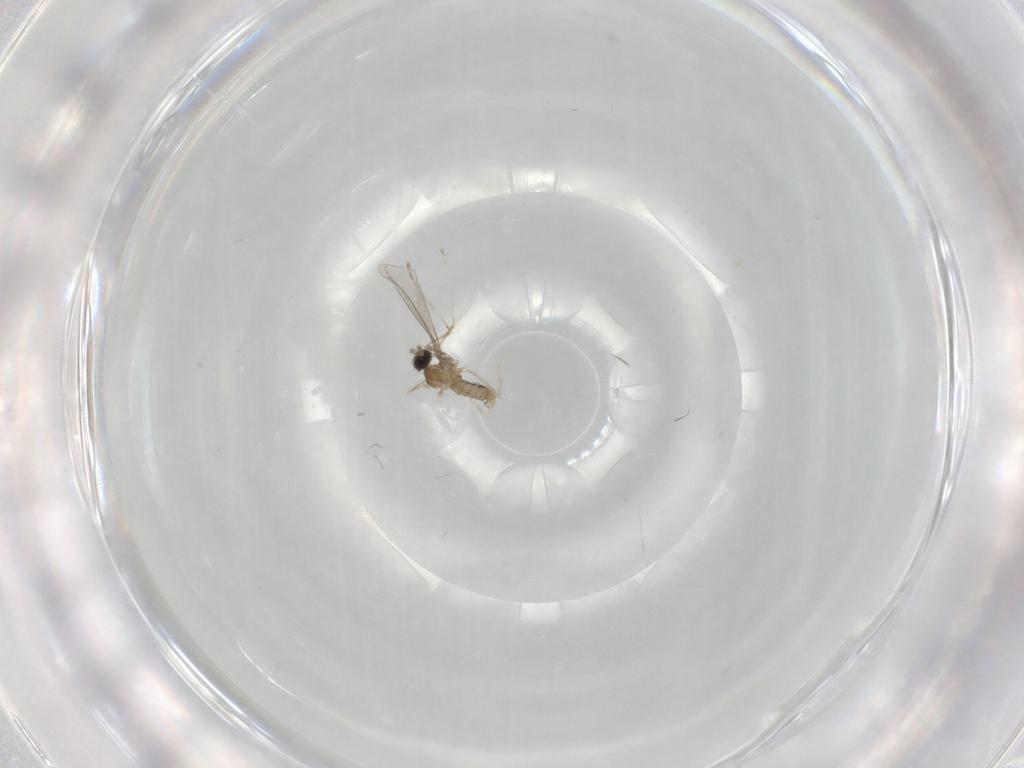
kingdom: Animalia
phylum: Arthropoda
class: Insecta
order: Diptera
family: Cecidomyiidae
